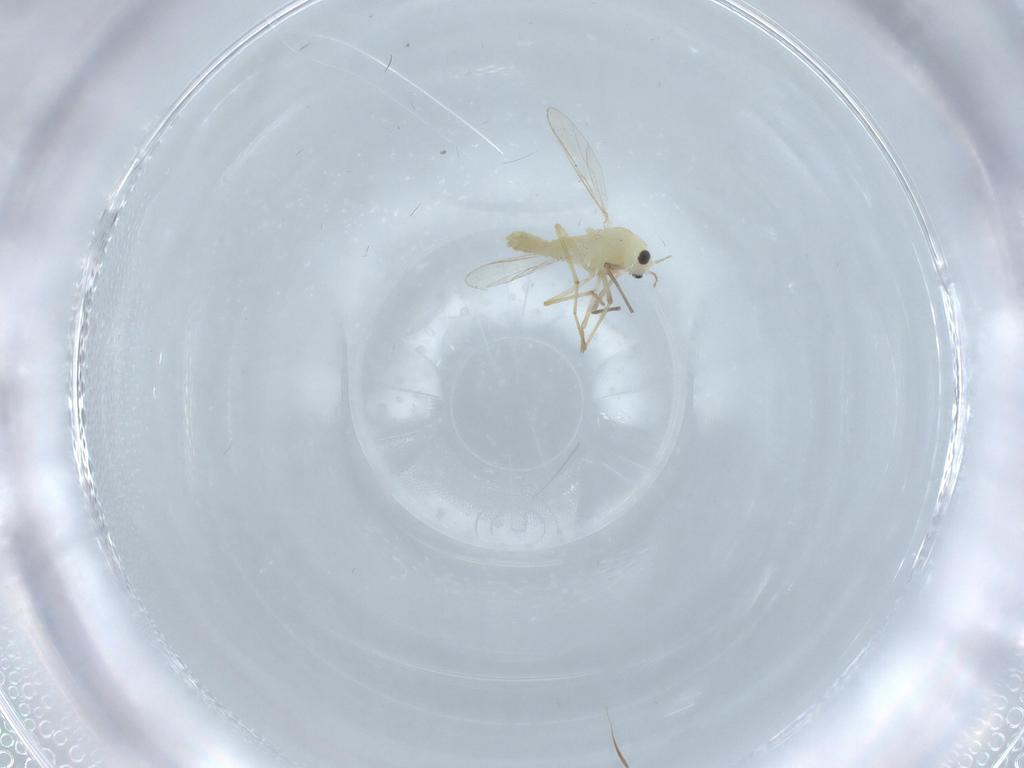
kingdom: Animalia
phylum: Arthropoda
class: Insecta
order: Diptera
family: Chironomidae
